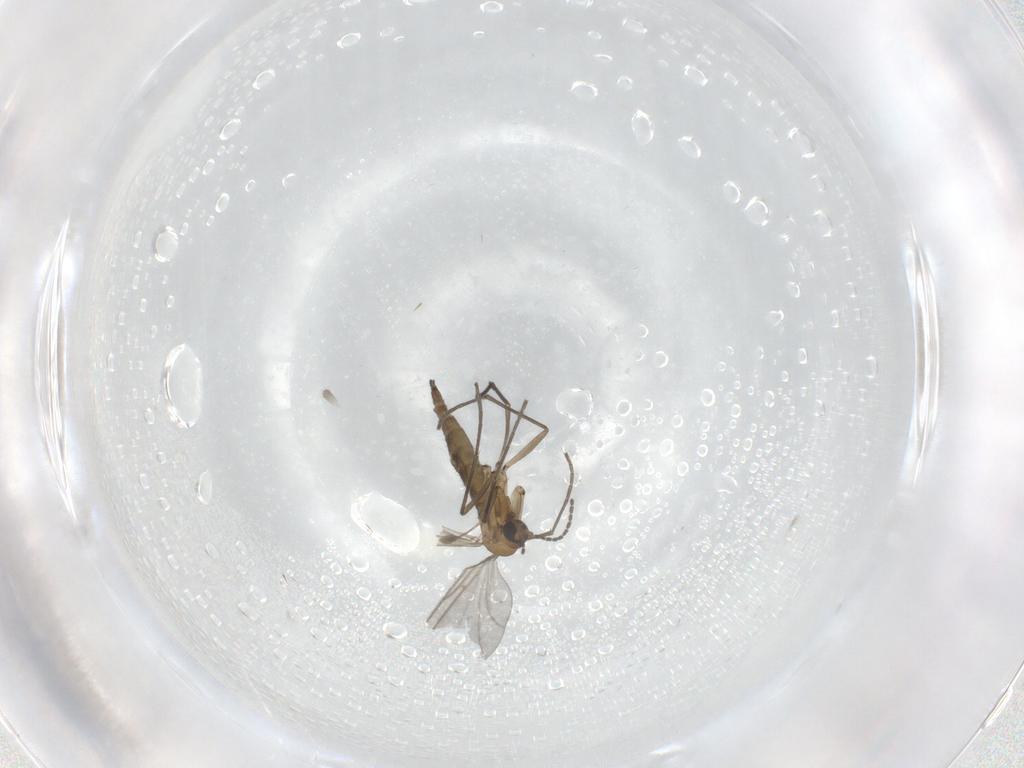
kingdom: Animalia
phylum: Arthropoda
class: Insecta
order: Diptera
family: Sciaridae
